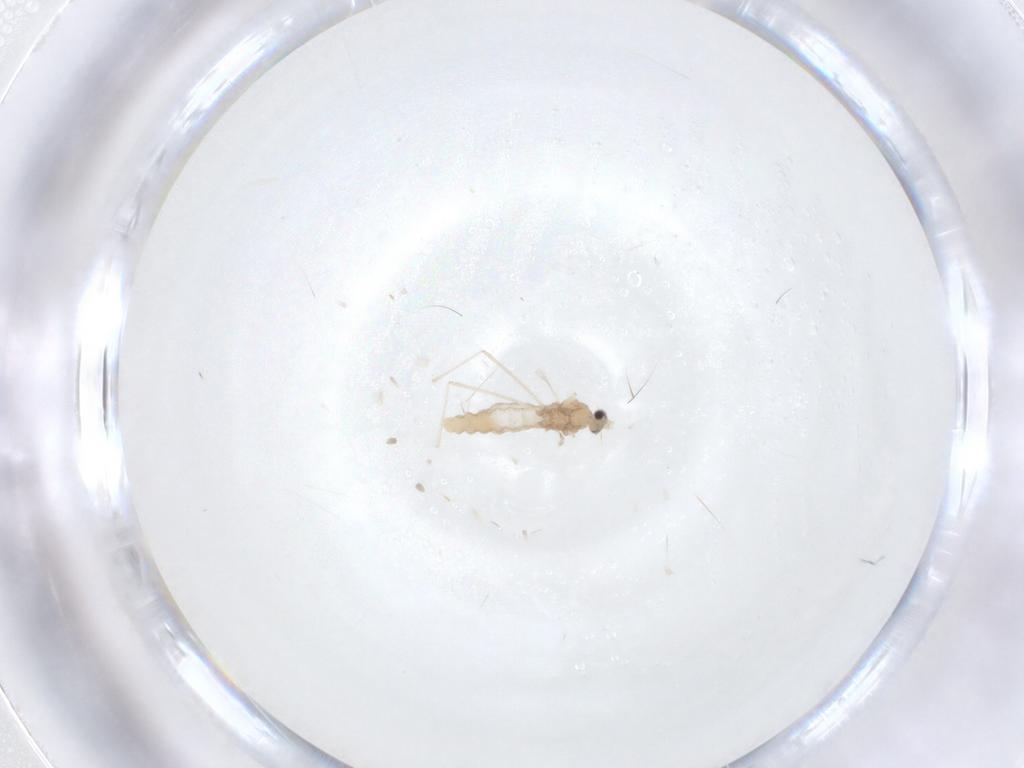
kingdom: Animalia
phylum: Arthropoda
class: Insecta
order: Diptera
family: Cecidomyiidae
